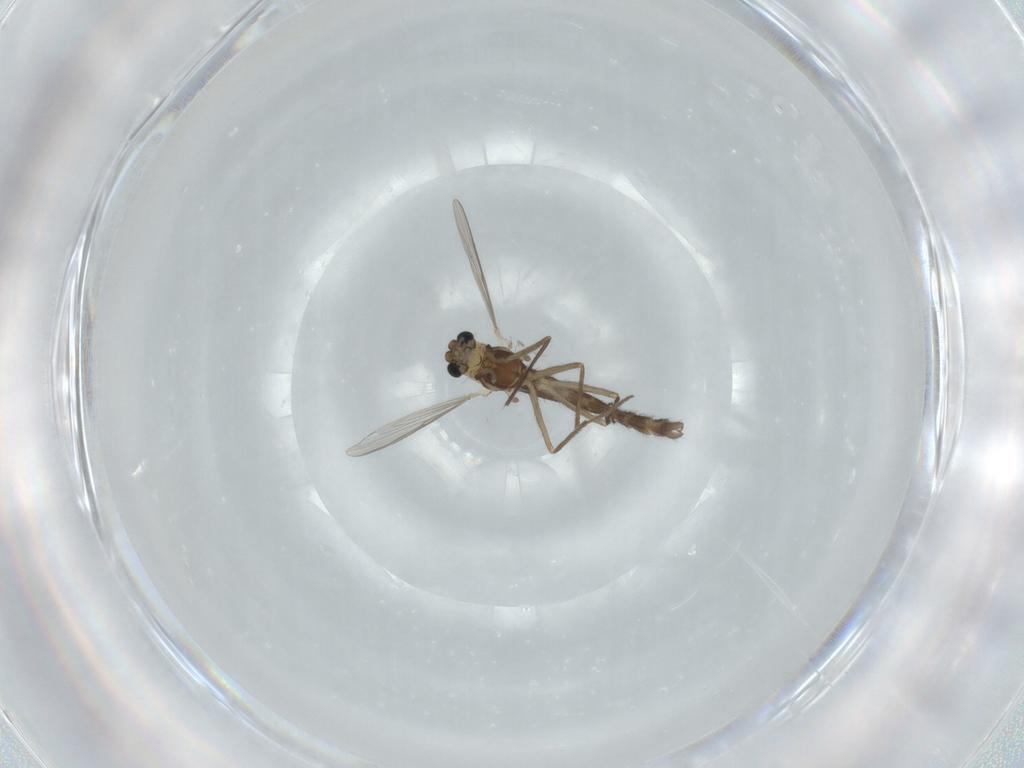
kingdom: Animalia
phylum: Arthropoda
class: Insecta
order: Diptera
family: Chironomidae
